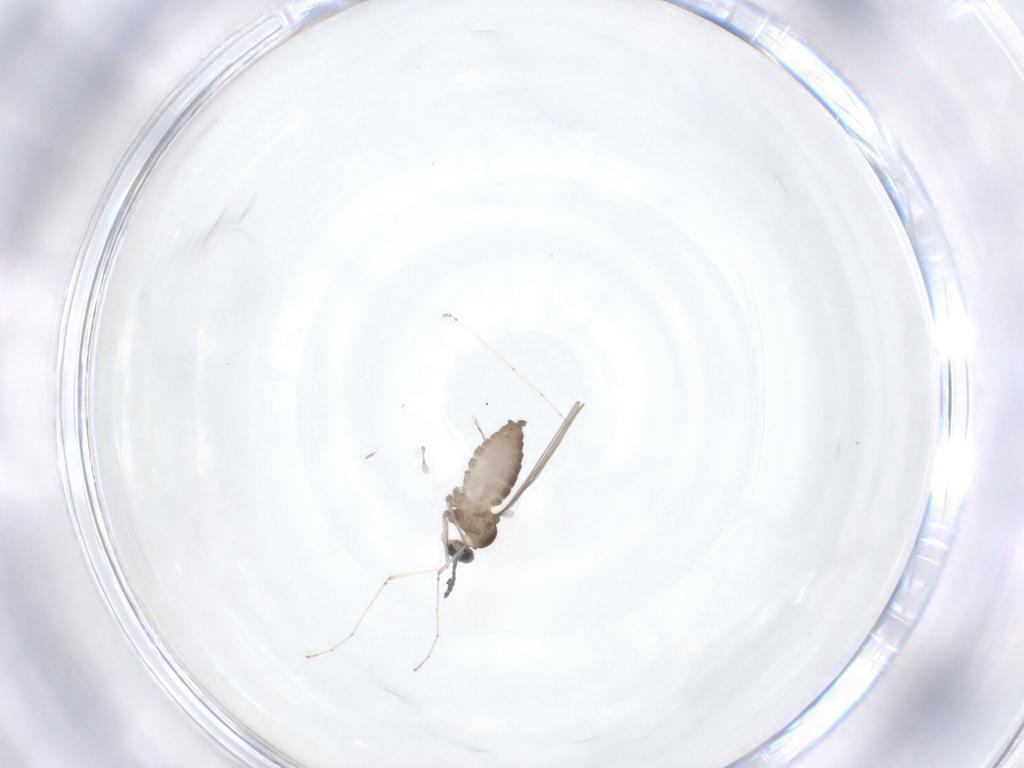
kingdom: Animalia
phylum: Arthropoda
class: Insecta
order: Diptera
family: Cecidomyiidae
